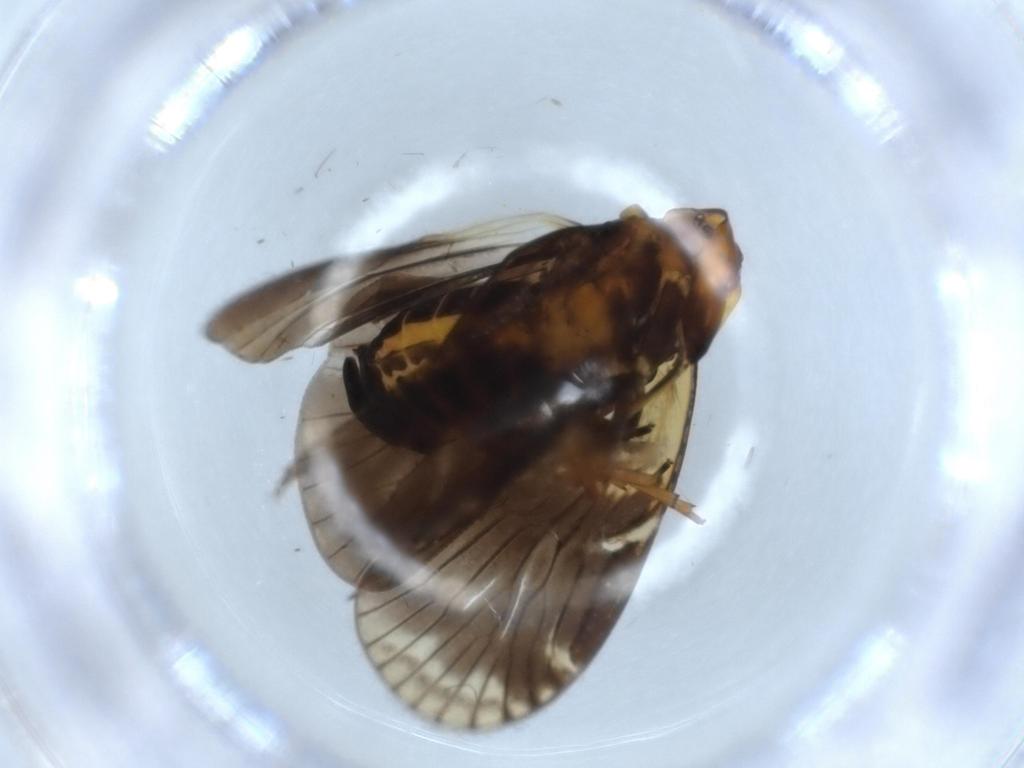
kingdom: Animalia
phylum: Arthropoda
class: Insecta
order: Hemiptera
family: Cixiidae
